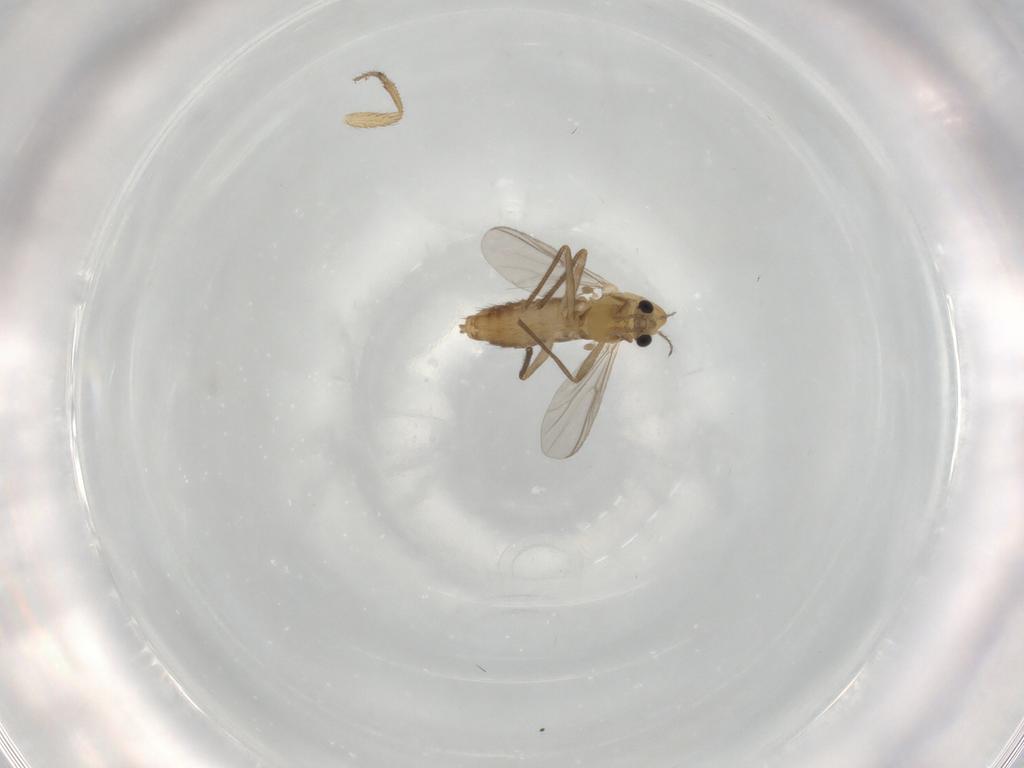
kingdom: Animalia
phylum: Arthropoda
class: Insecta
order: Diptera
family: Chironomidae
